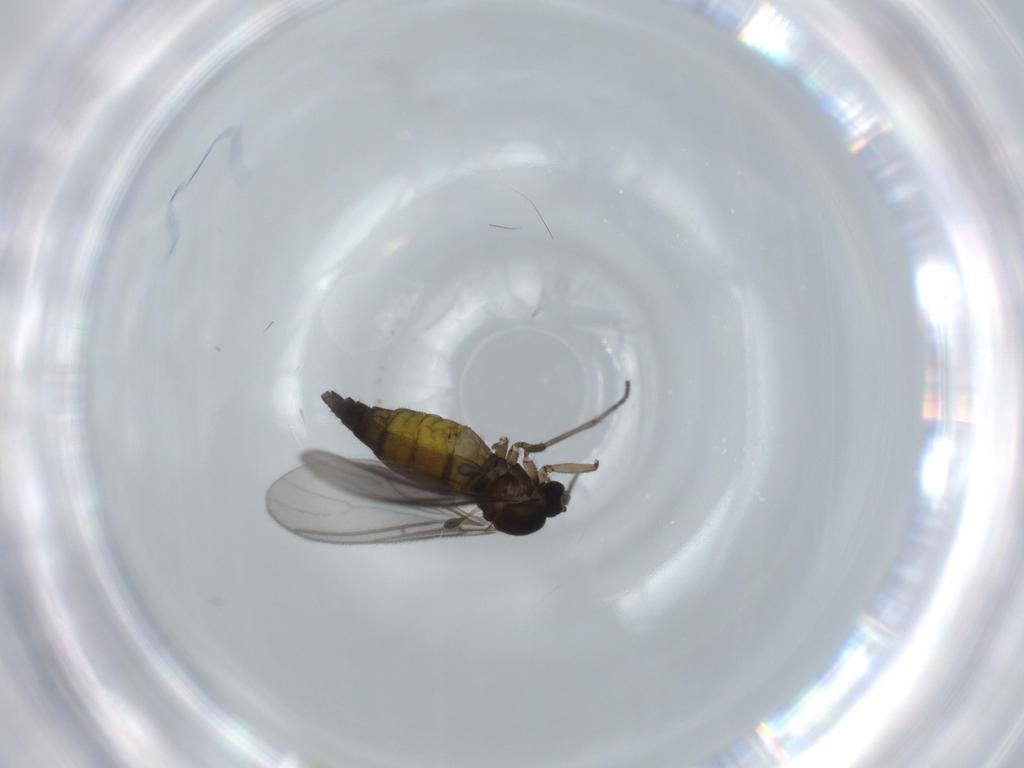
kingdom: Animalia
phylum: Arthropoda
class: Insecta
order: Diptera
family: Sciaridae
